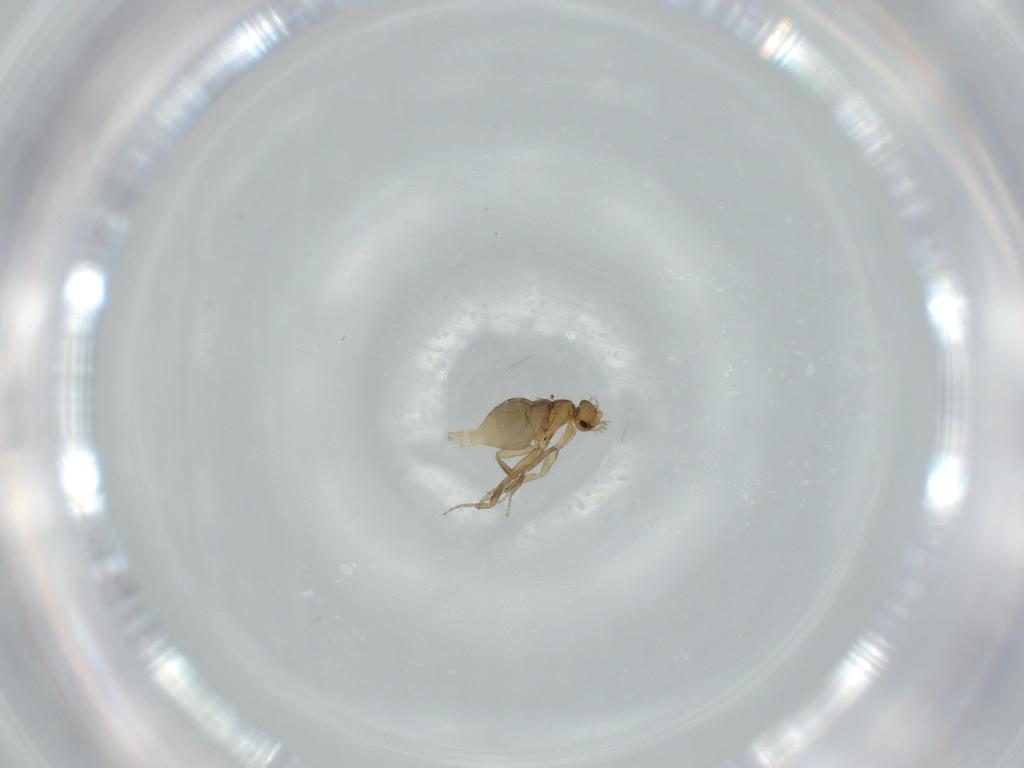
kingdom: Animalia
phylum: Arthropoda
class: Insecta
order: Diptera
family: Phoridae
